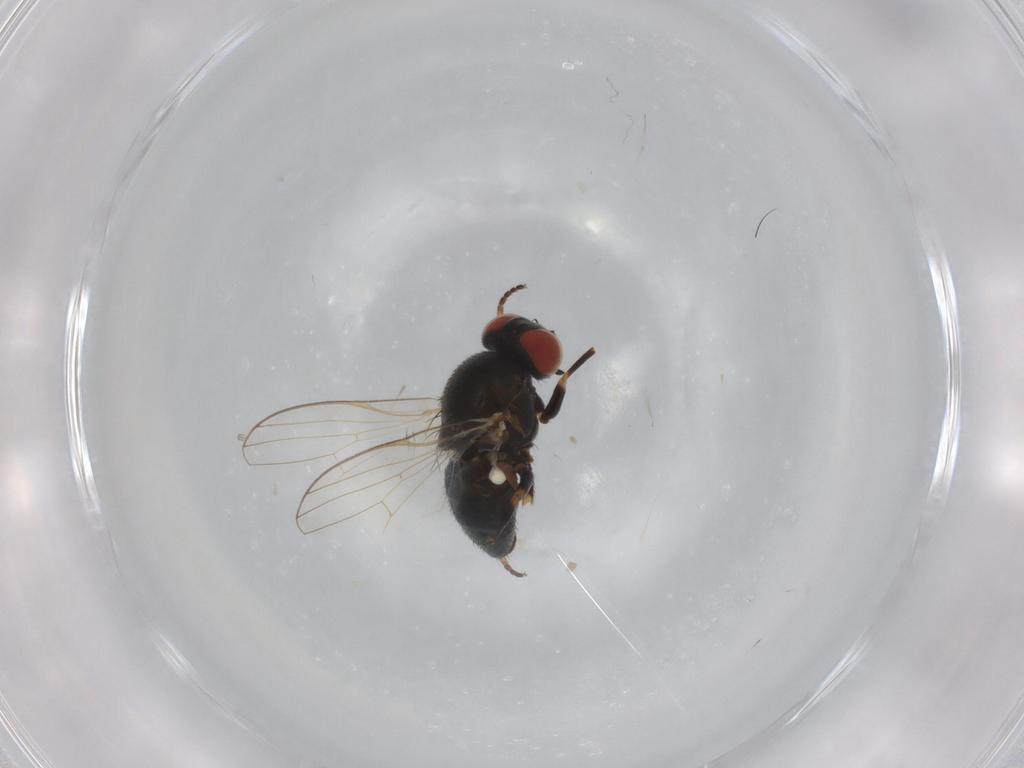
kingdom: Animalia
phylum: Arthropoda
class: Insecta
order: Diptera
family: Chamaemyiidae
